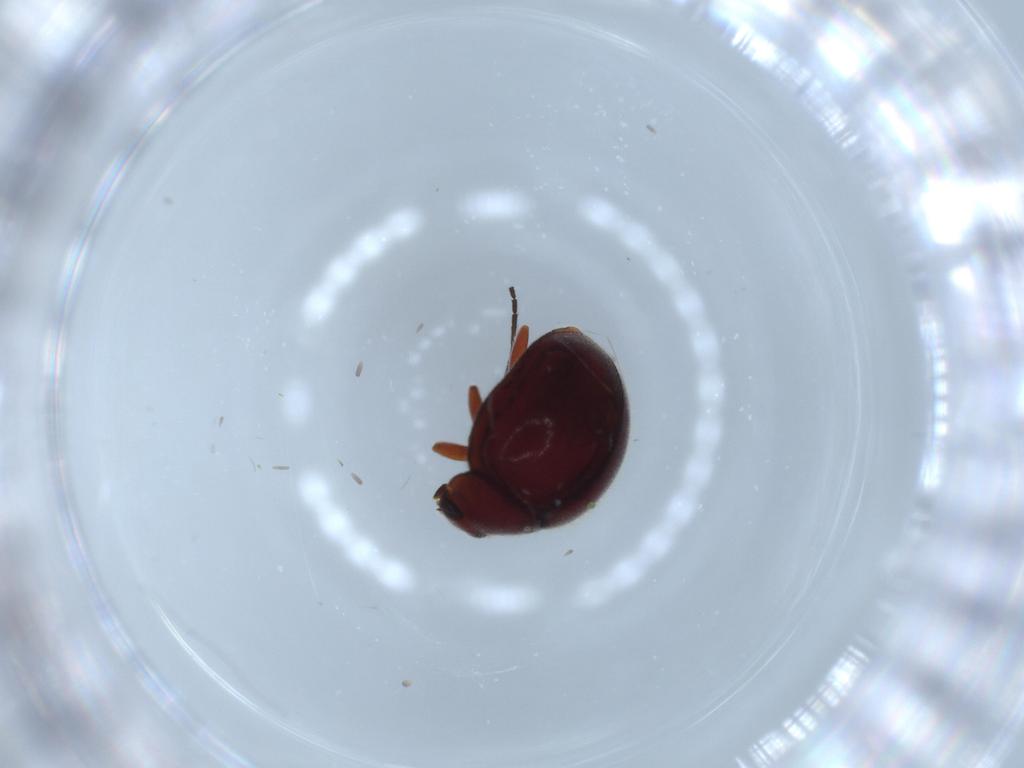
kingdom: Animalia
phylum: Arthropoda
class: Insecta
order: Coleoptera
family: Coccinellidae
